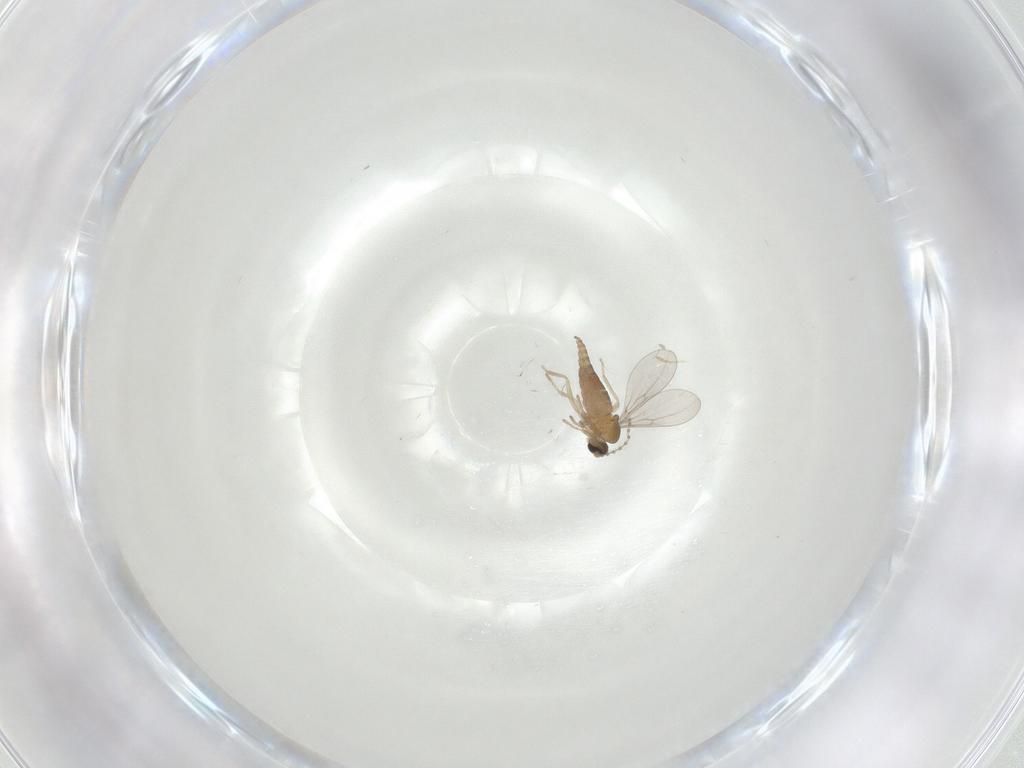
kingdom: Animalia
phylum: Arthropoda
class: Insecta
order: Diptera
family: Cecidomyiidae
